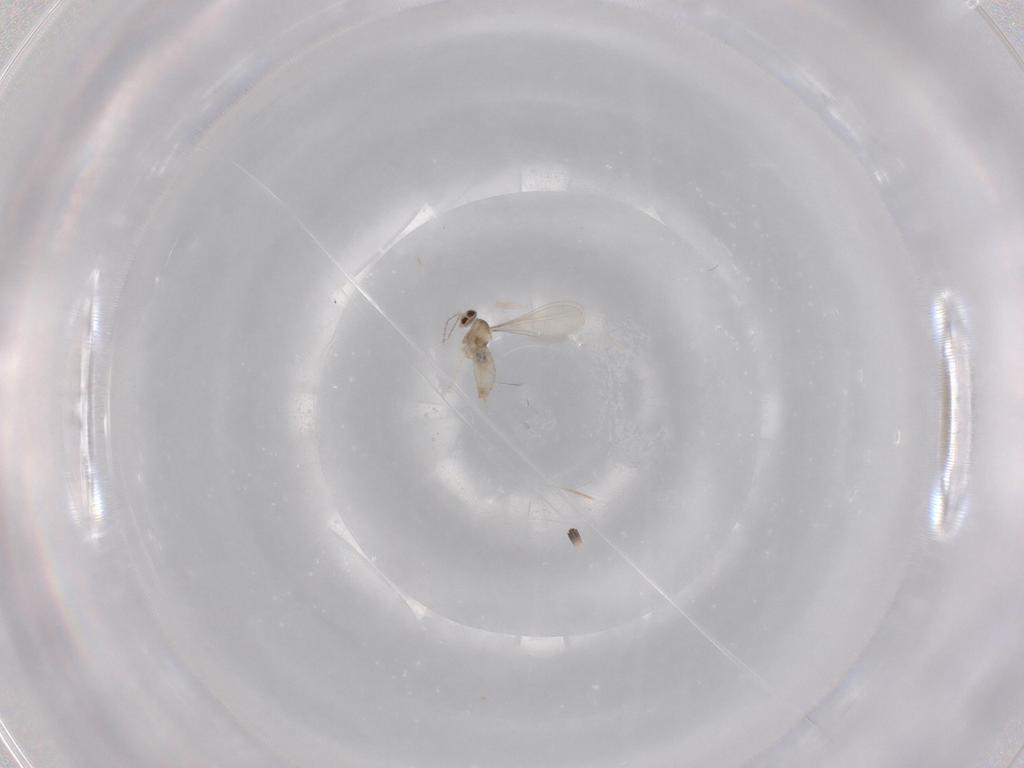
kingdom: Animalia
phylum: Arthropoda
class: Insecta
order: Diptera
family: Cecidomyiidae
